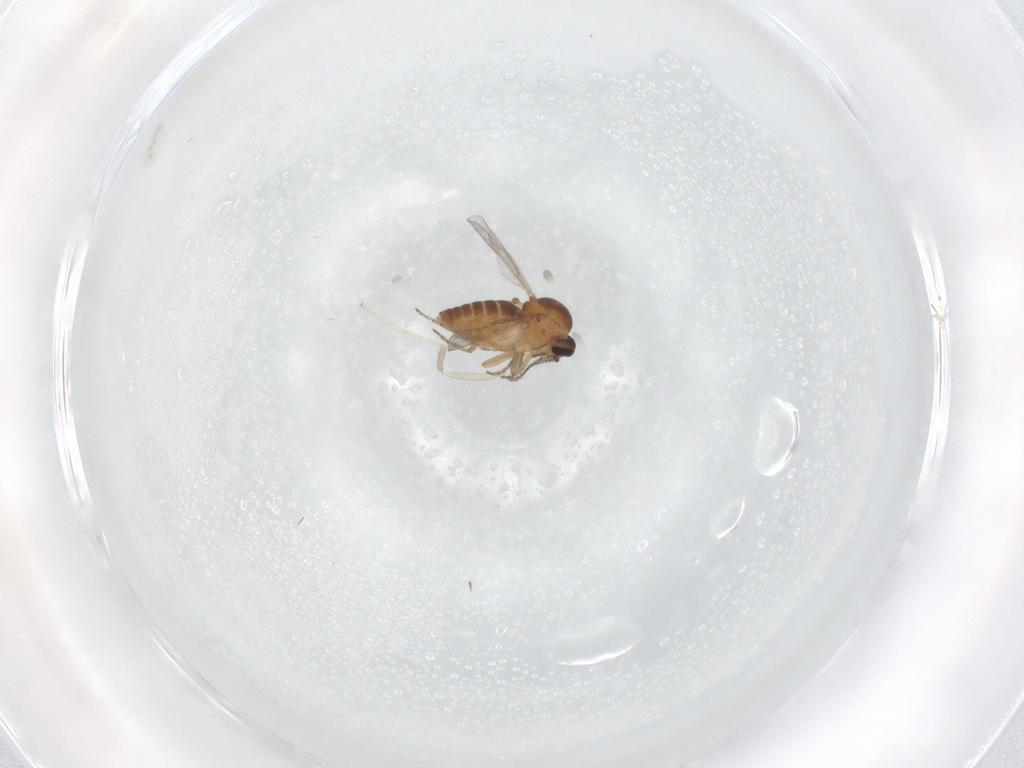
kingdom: Animalia
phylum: Arthropoda
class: Insecta
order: Diptera
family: Ceratopogonidae
